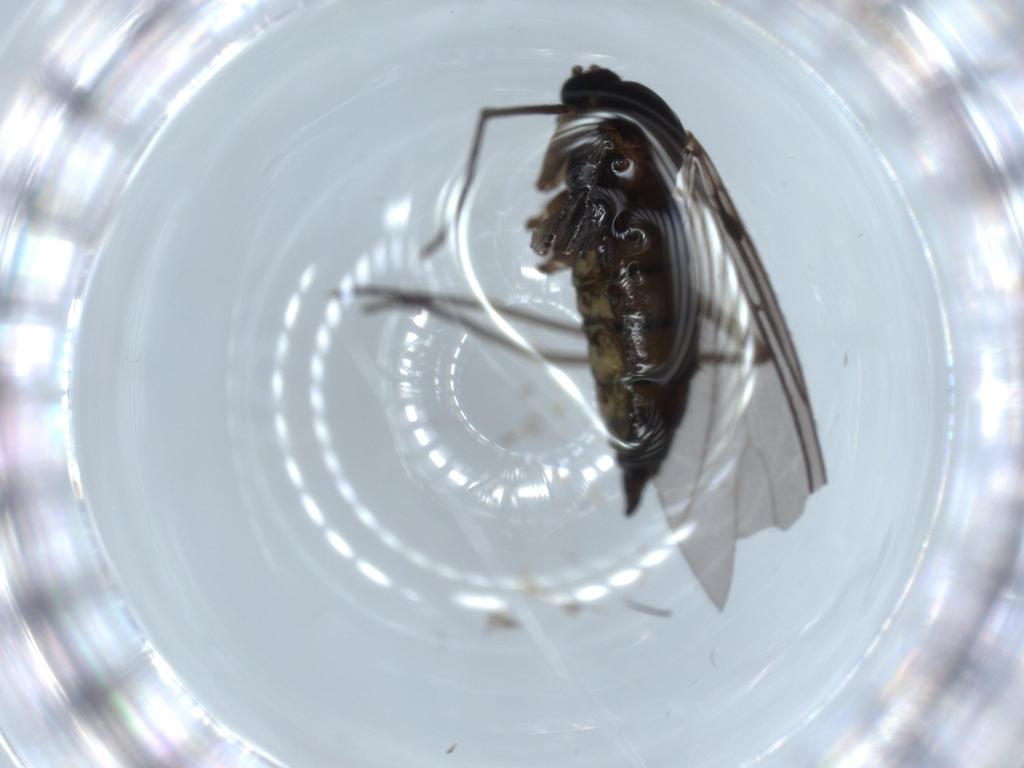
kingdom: Animalia
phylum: Arthropoda
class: Insecta
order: Diptera
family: Sciaridae
